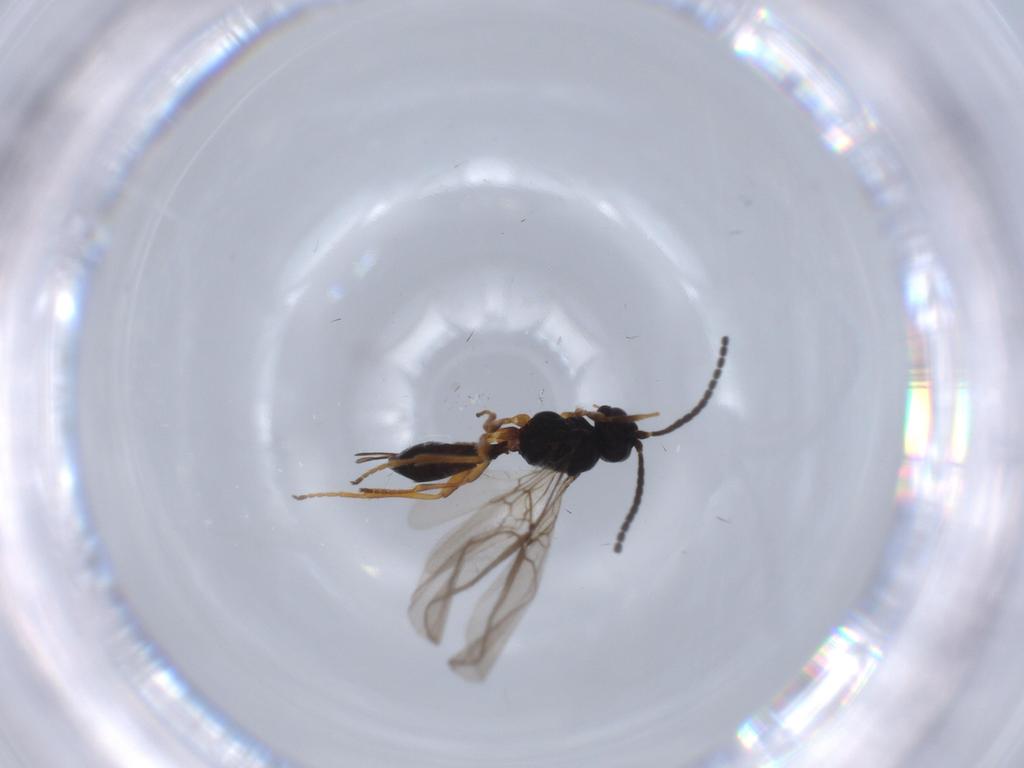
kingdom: Animalia
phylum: Arthropoda
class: Insecta
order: Hymenoptera
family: Braconidae
